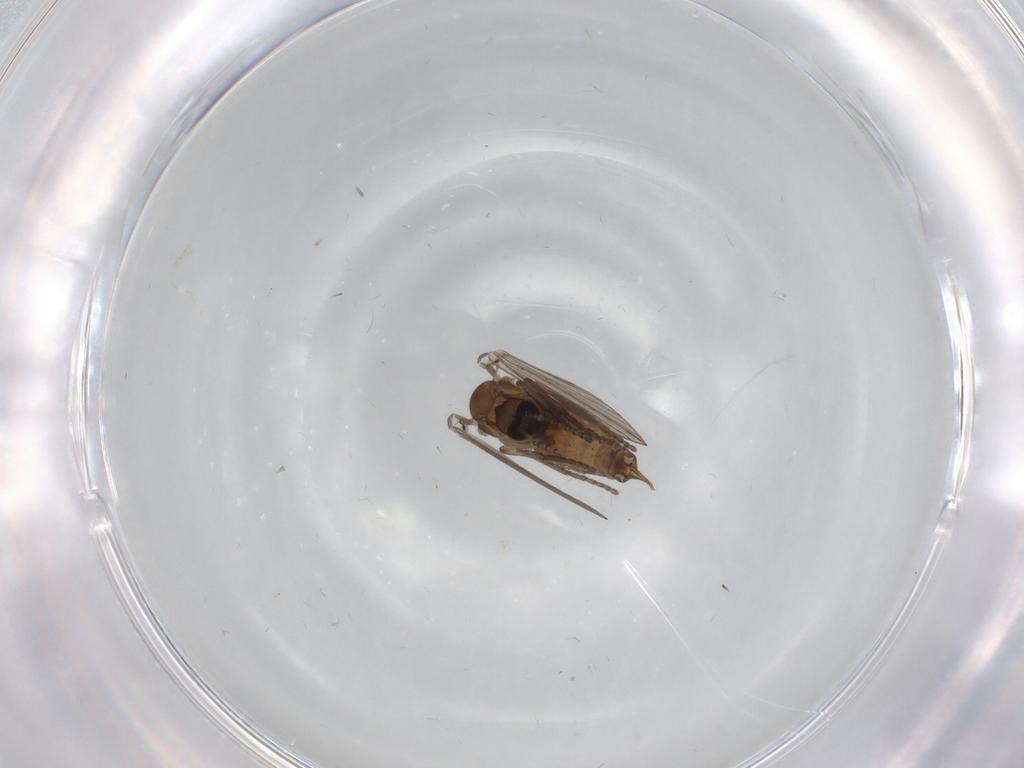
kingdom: Animalia
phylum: Arthropoda
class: Insecta
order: Diptera
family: Psychodidae
